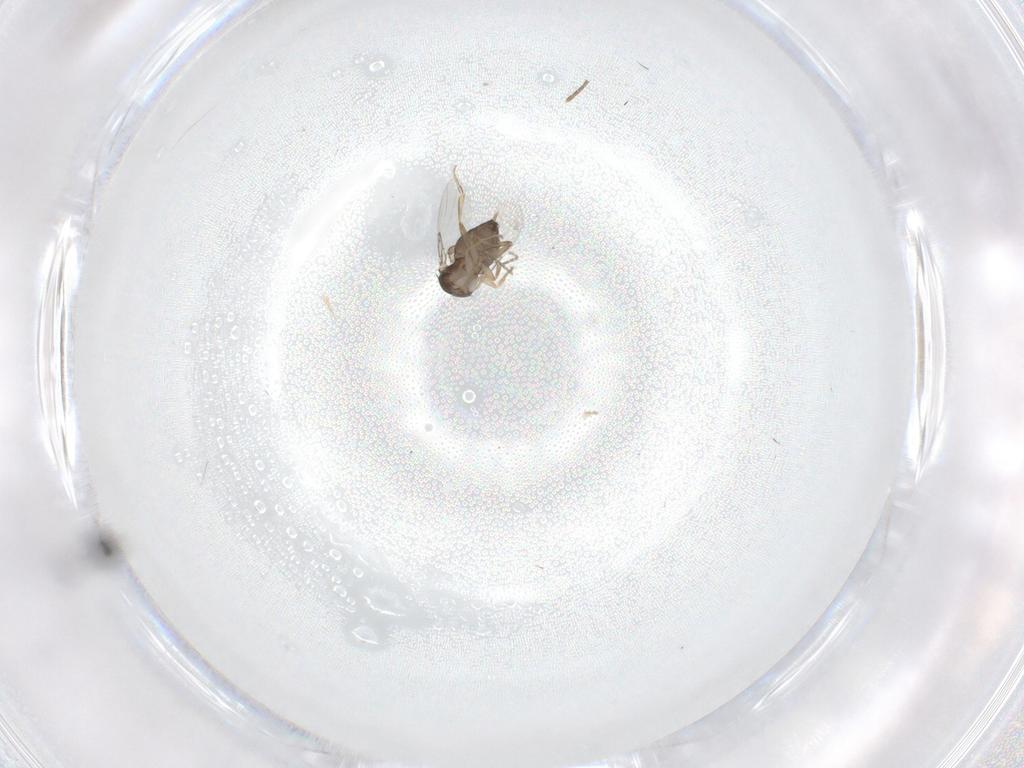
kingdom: Animalia
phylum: Arthropoda
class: Insecta
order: Diptera
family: Phoridae
